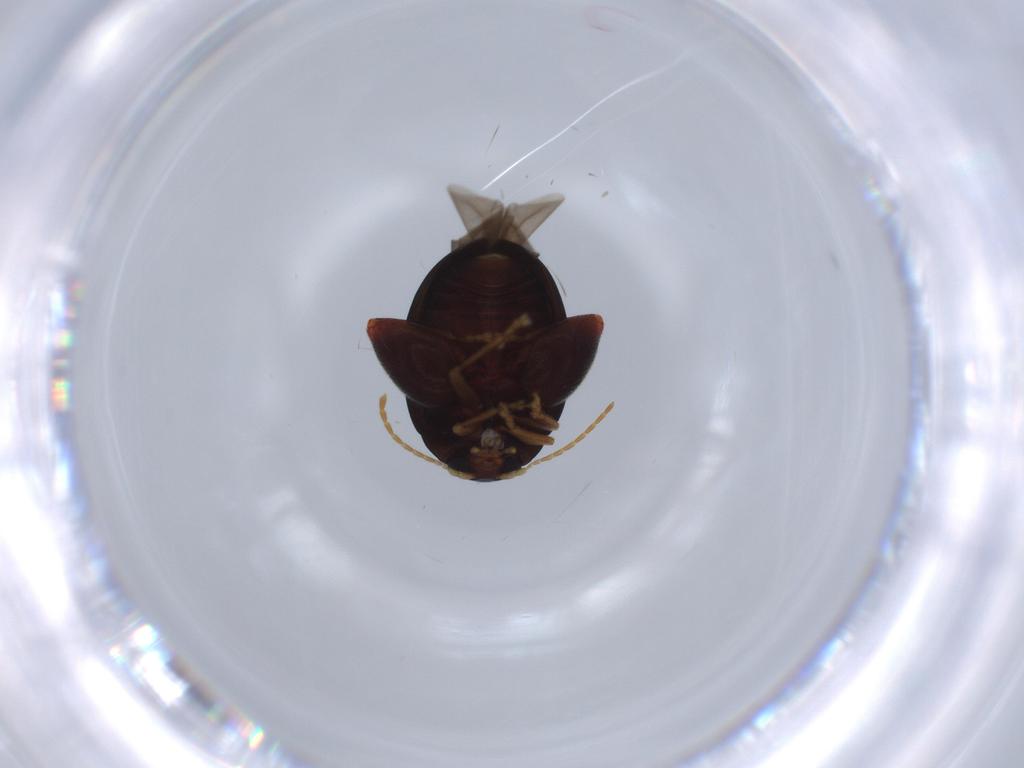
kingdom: Animalia
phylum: Arthropoda
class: Insecta
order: Coleoptera
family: Chrysomelidae
